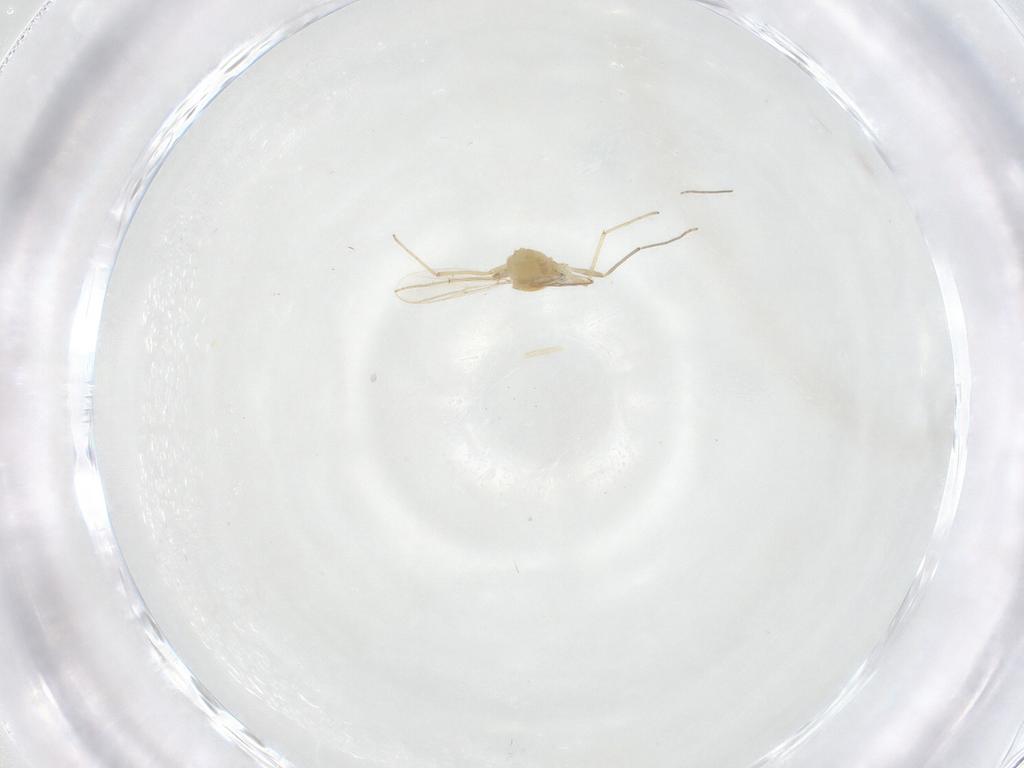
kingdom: Animalia
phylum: Arthropoda
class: Insecta
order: Diptera
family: Chironomidae
